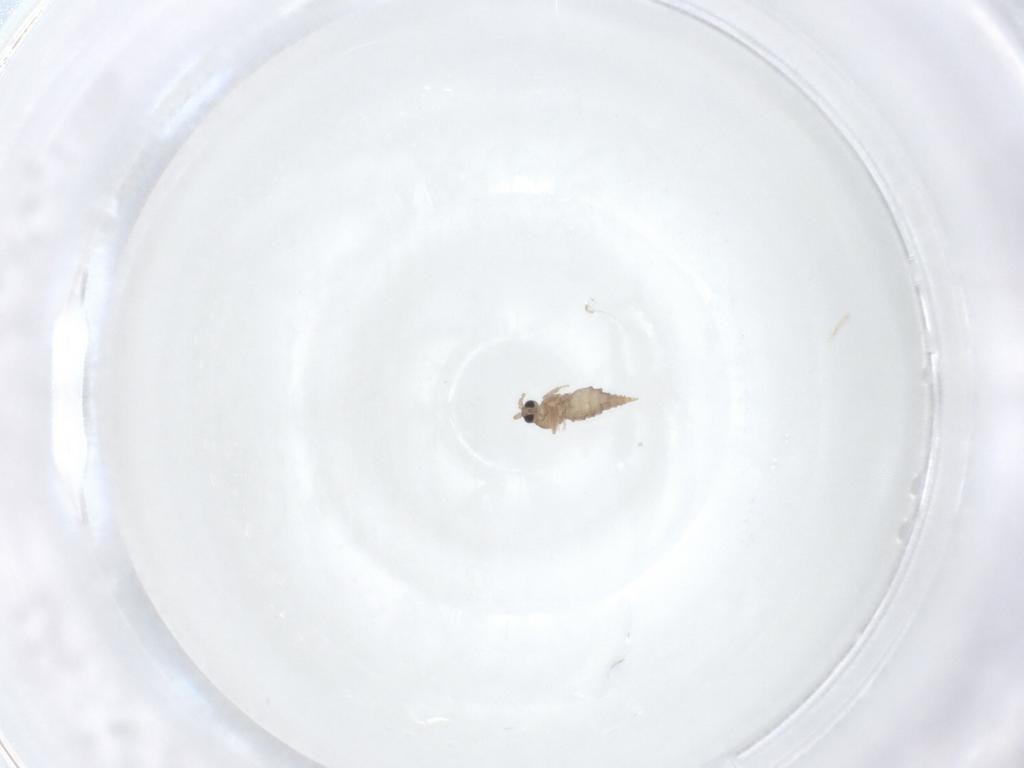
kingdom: Animalia
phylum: Arthropoda
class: Insecta
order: Diptera
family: Cecidomyiidae
